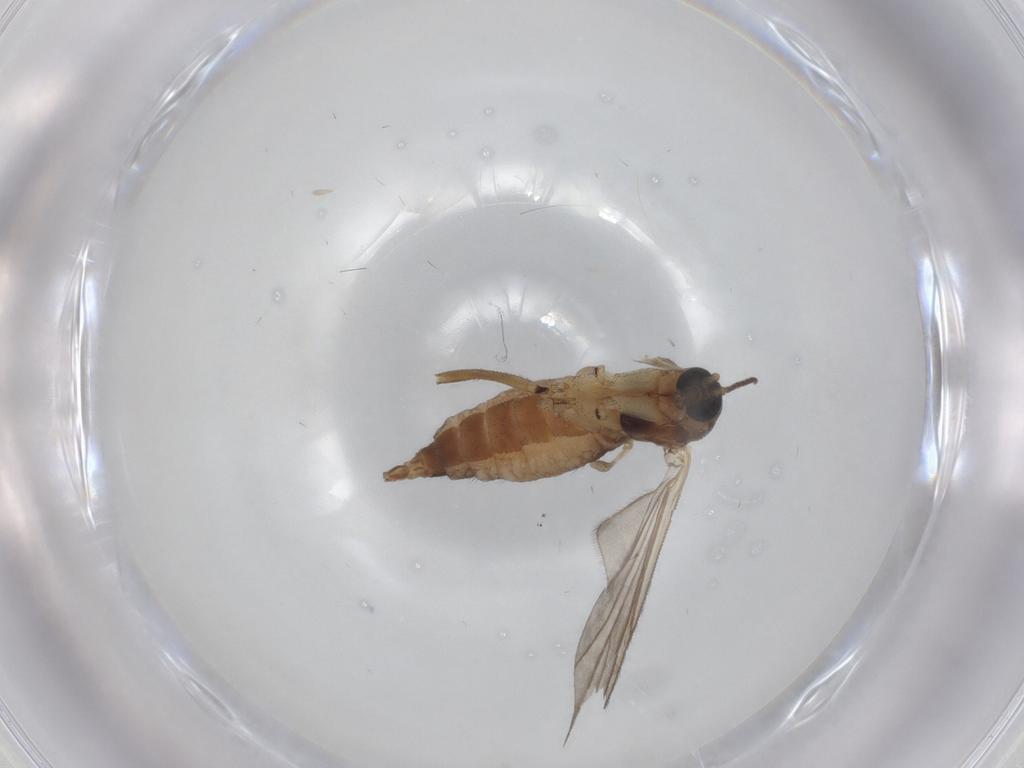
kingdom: Animalia
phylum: Arthropoda
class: Insecta
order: Diptera
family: Sciaridae
